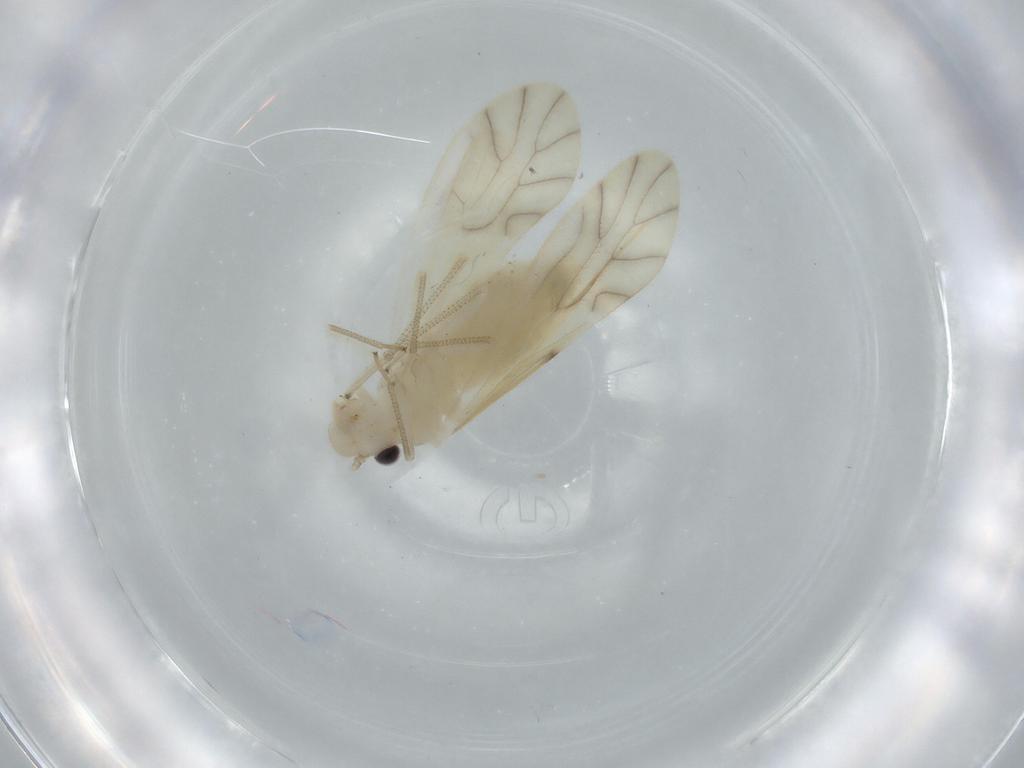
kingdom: Animalia
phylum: Arthropoda
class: Insecta
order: Psocodea
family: Caeciliusidae
